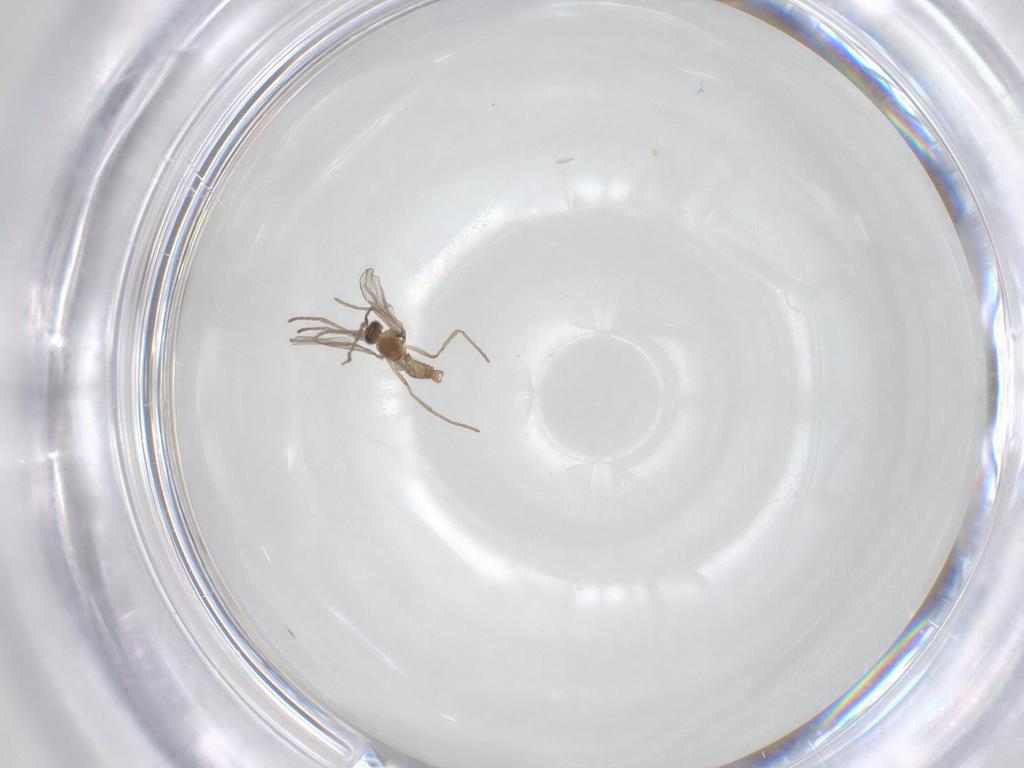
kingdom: Animalia
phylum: Arthropoda
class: Insecta
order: Diptera
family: Cecidomyiidae
